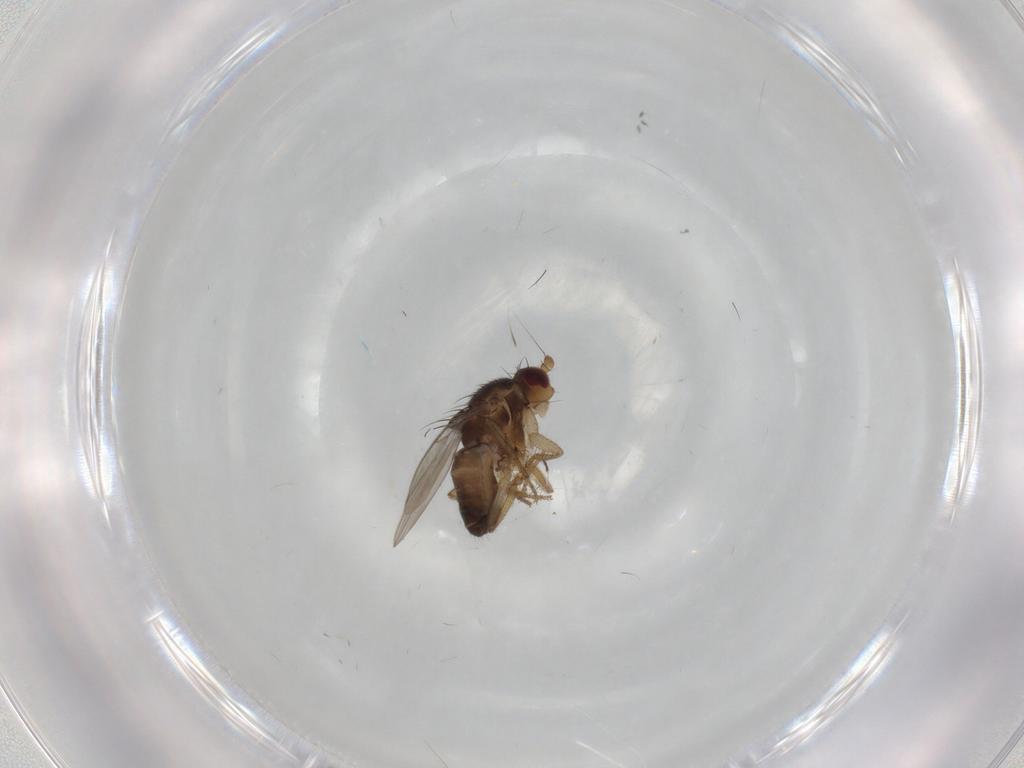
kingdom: Animalia
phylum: Arthropoda
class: Insecta
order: Diptera
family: Cecidomyiidae
